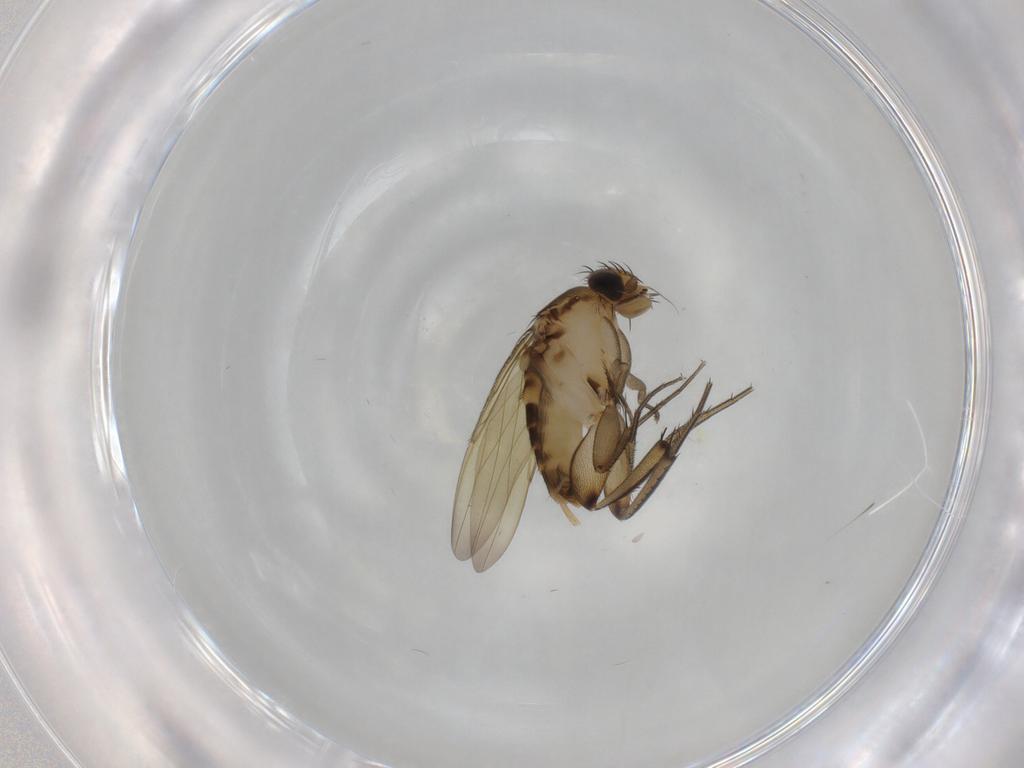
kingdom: Animalia
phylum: Arthropoda
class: Insecta
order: Diptera
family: Phoridae
